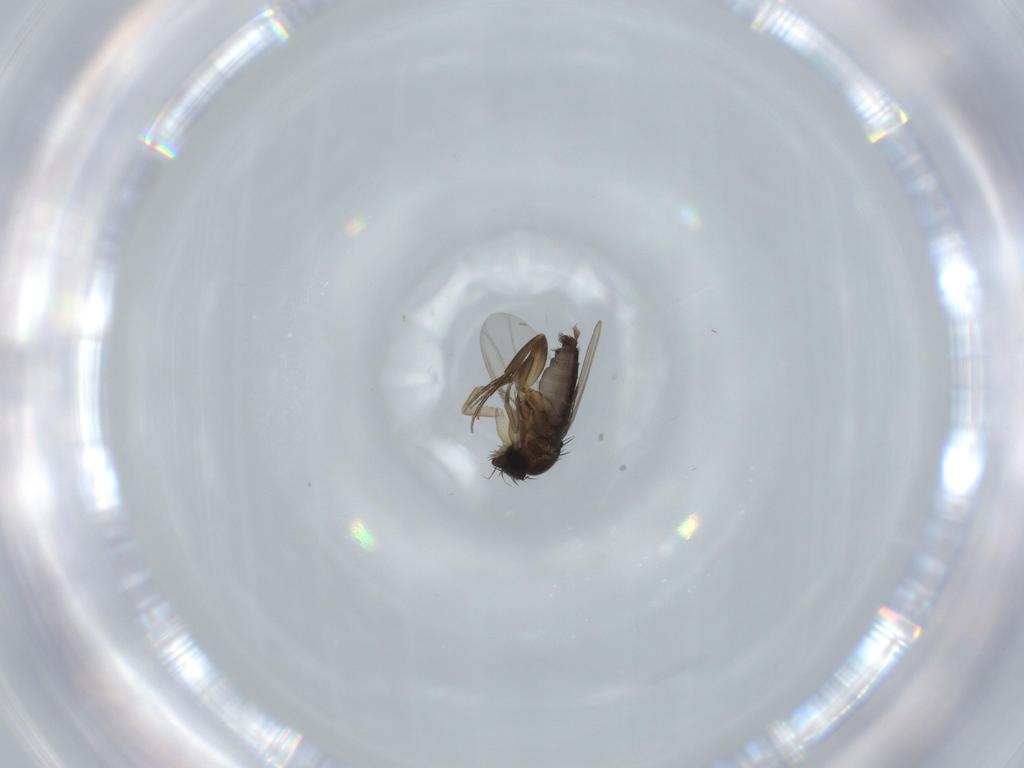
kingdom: Animalia
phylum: Arthropoda
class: Insecta
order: Diptera
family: Phoridae
